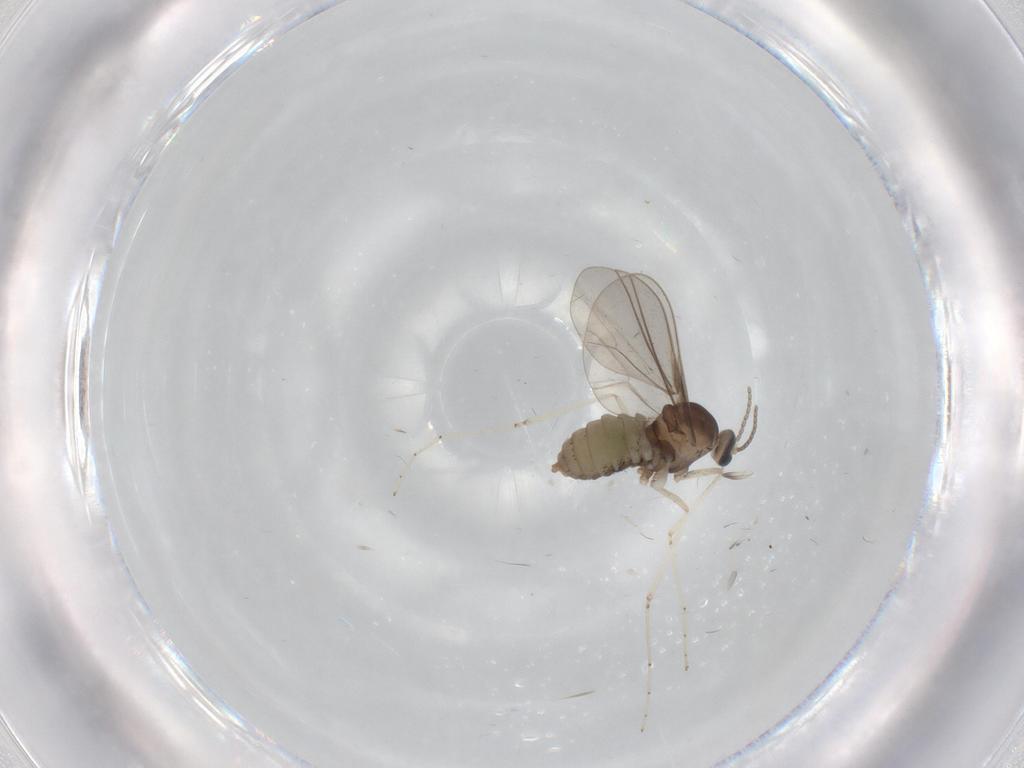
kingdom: Animalia
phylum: Arthropoda
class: Insecta
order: Diptera
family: Cecidomyiidae
